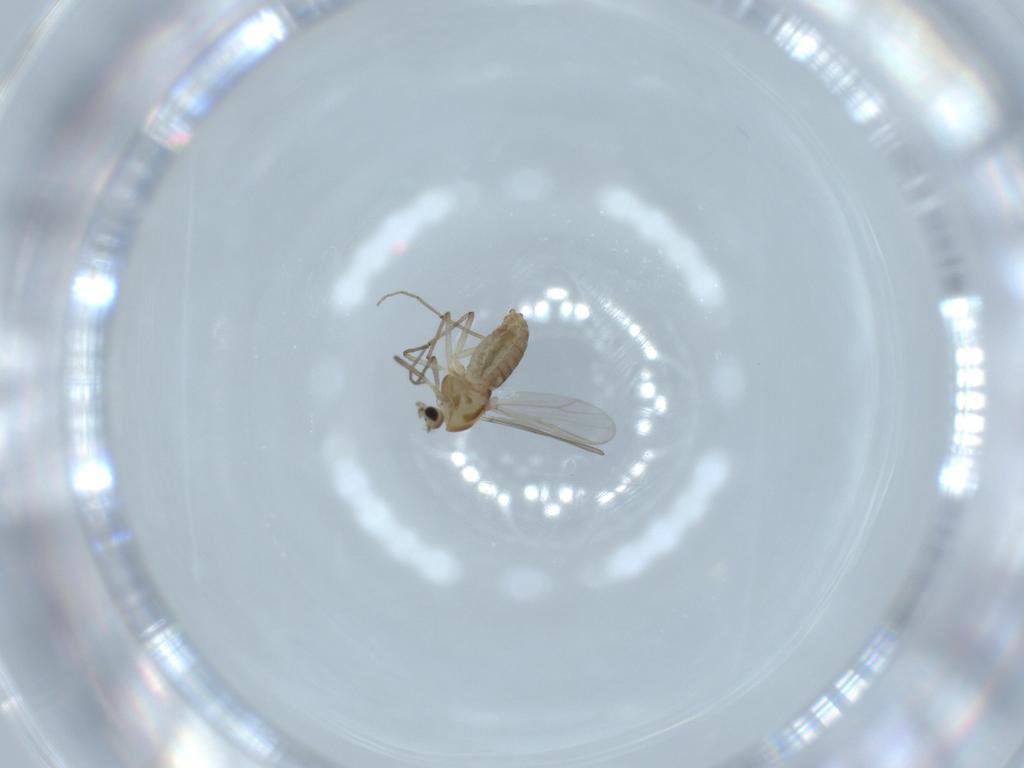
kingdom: Animalia
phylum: Arthropoda
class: Insecta
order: Diptera
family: Chironomidae
